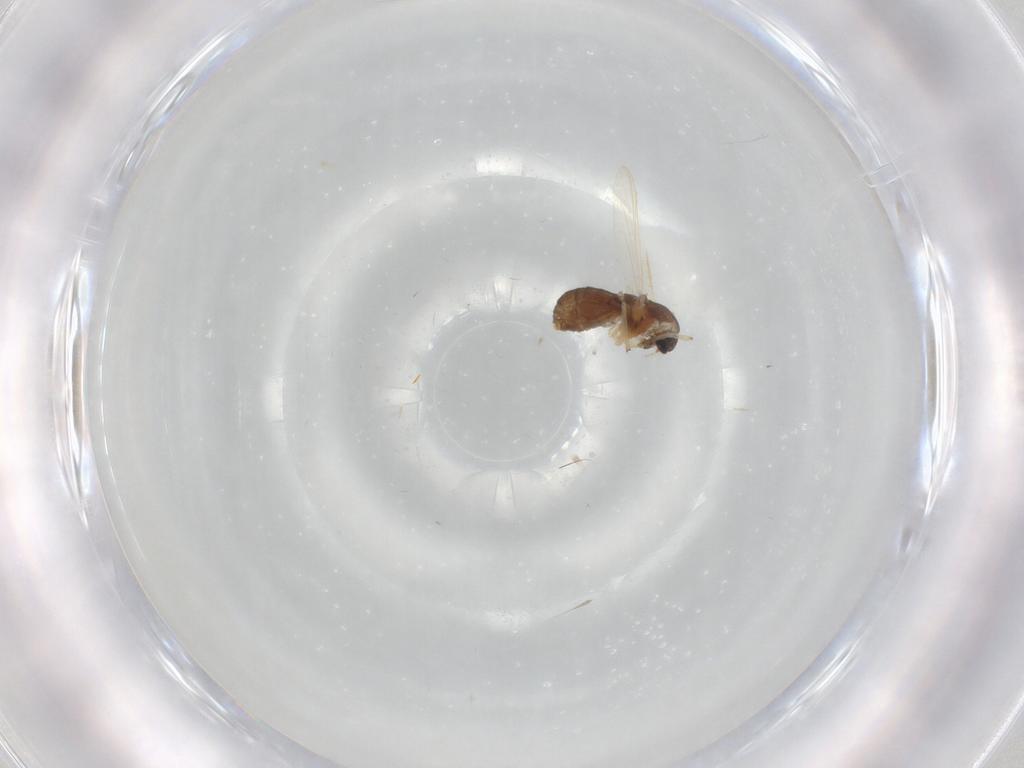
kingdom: Animalia
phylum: Arthropoda
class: Insecta
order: Diptera
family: Chironomidae
